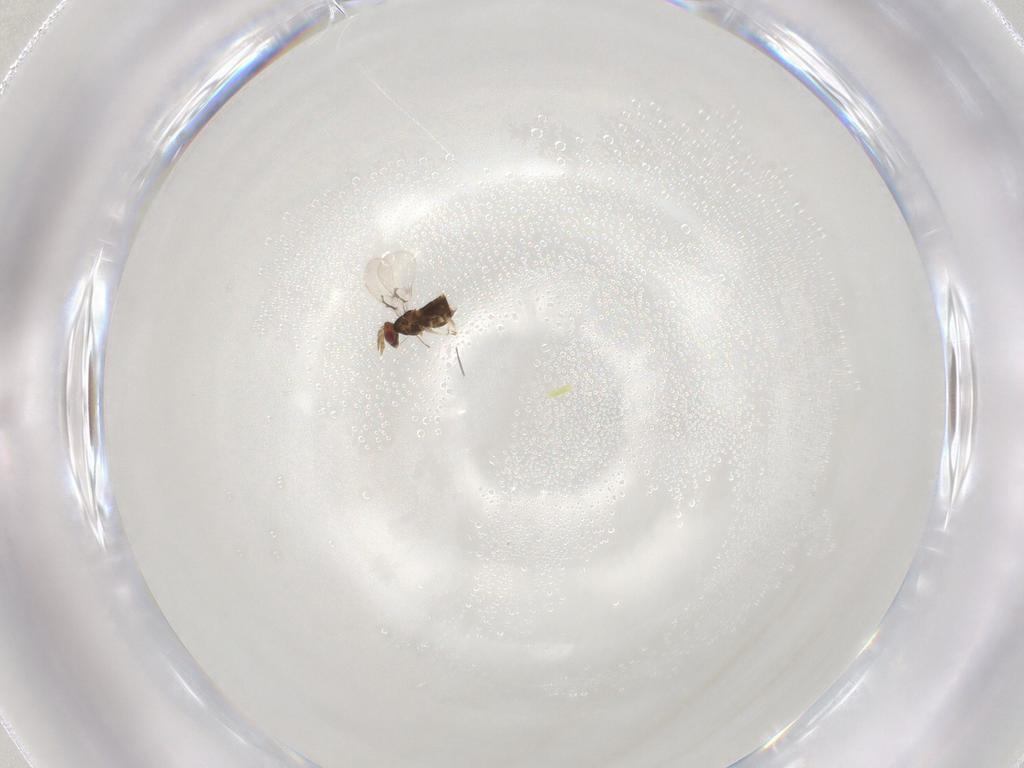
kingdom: Animalia
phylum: Arthropoda
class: Insecta
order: Hymenoptera
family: Trichogrammatidae
